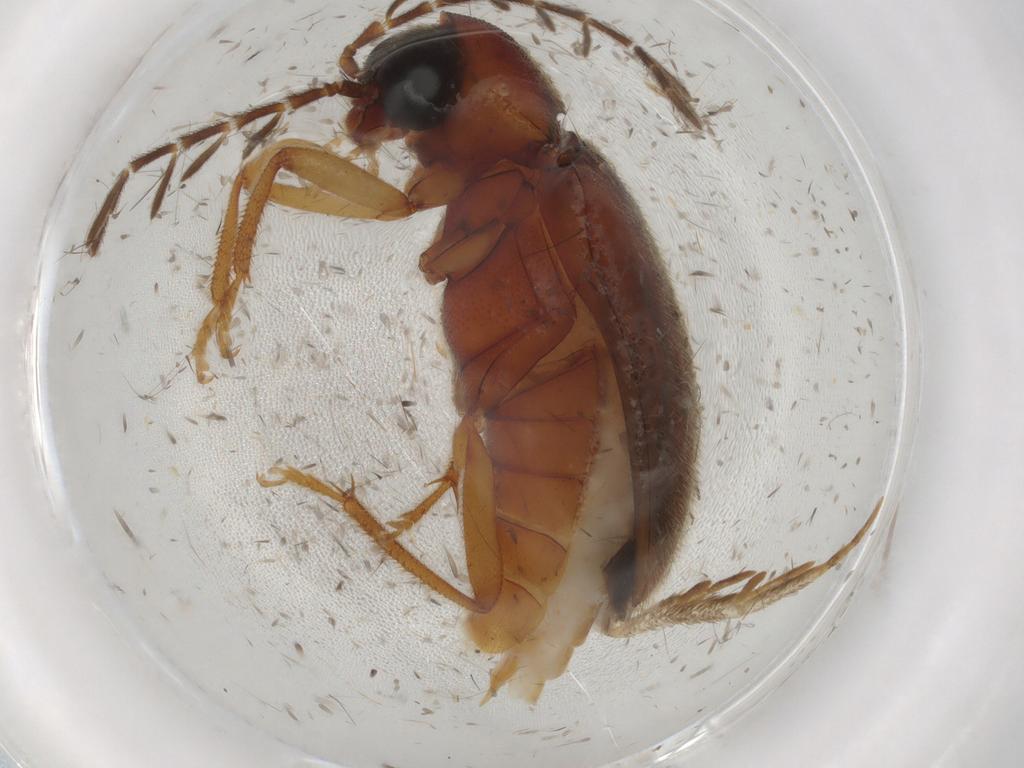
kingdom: Animalia
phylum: Arthropoda
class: Insecta
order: Coleoptera
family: Ptilodactylidae
